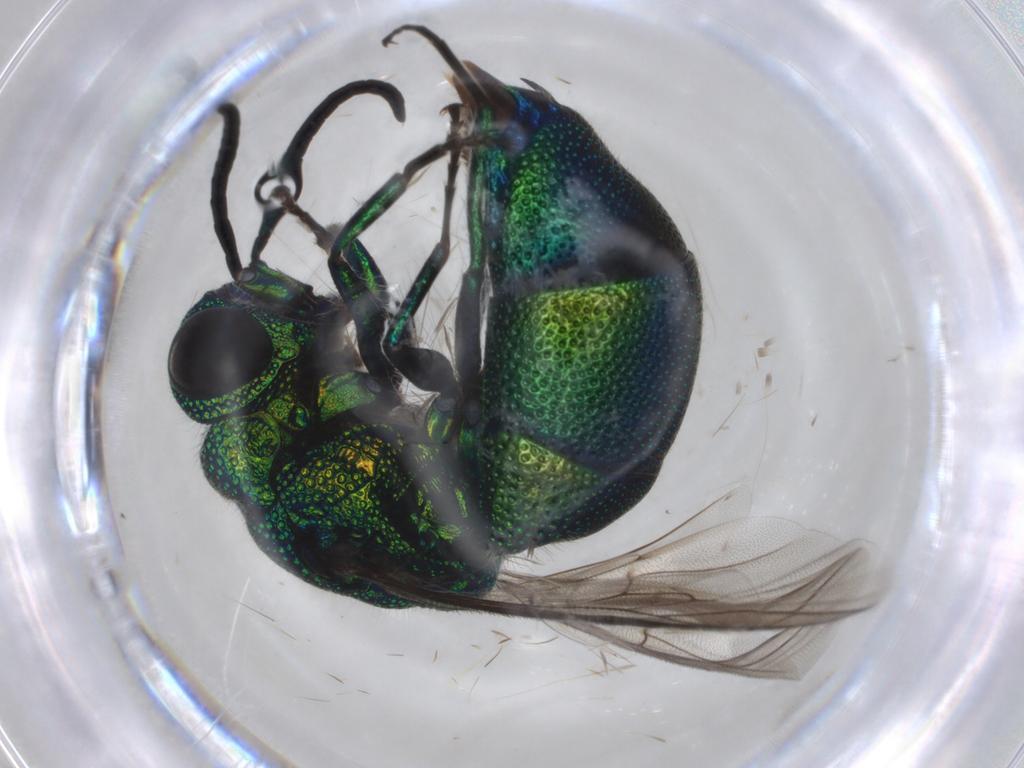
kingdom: Animalia
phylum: Arthropoda
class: Insecta
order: Hymenoptera
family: Chrysididae
